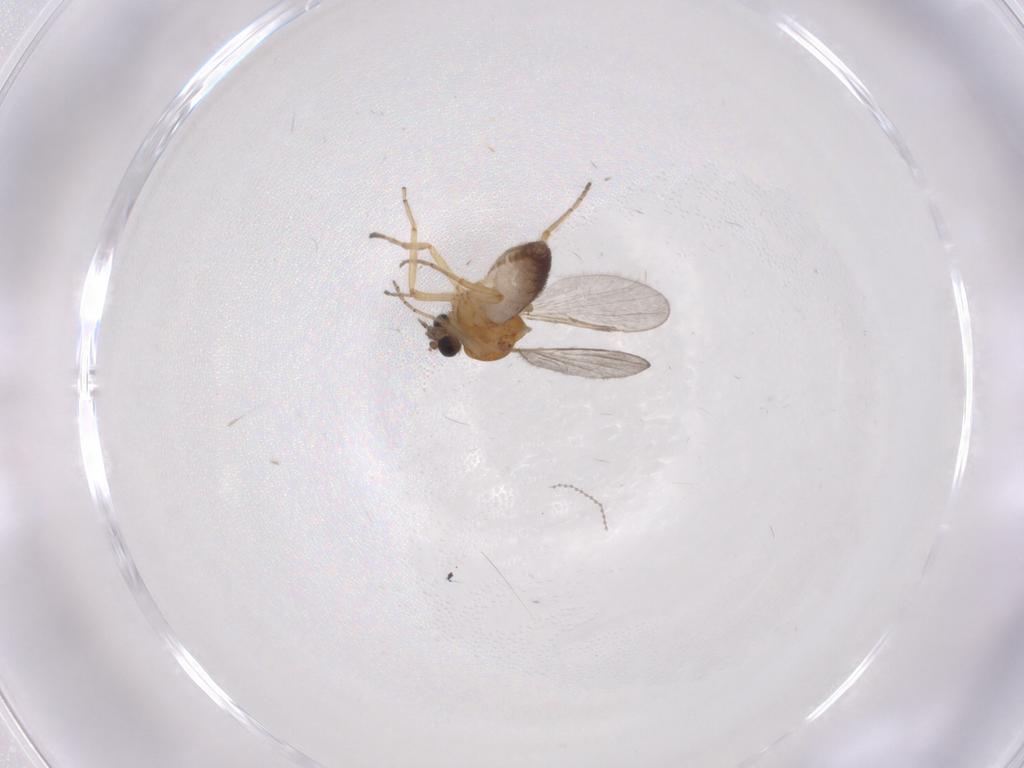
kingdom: Animalia
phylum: Arthropoda
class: Insecta
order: Diptera
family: Ceratopogonidae
